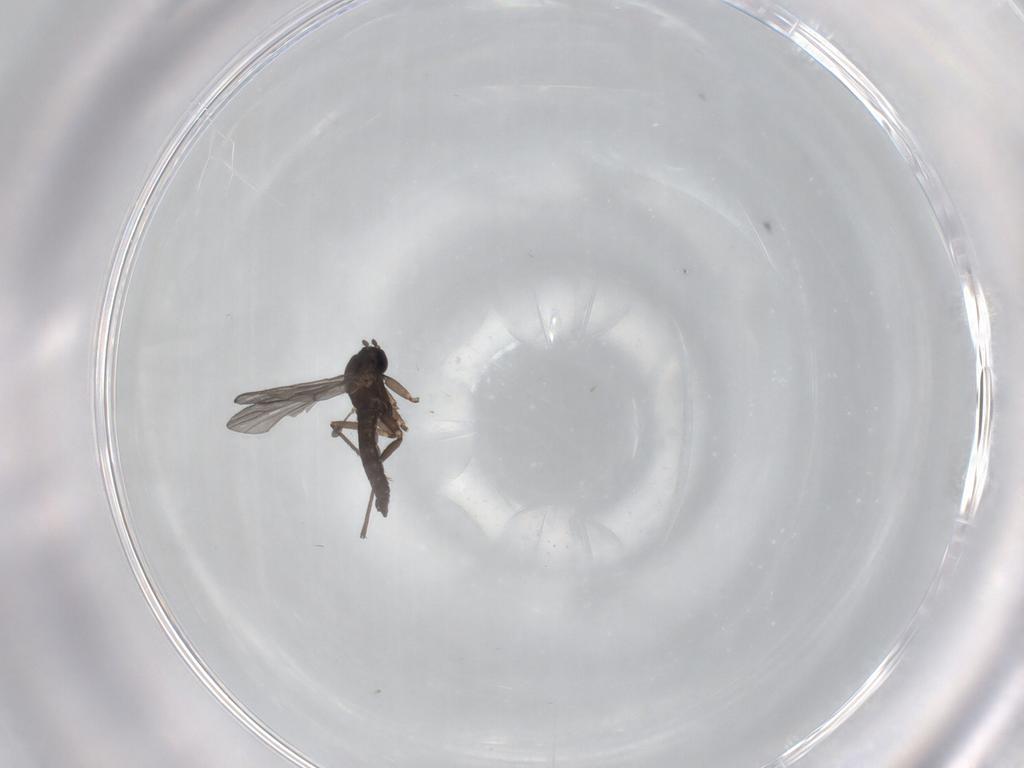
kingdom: Animalia
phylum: Arthropoda
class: Insecta
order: Diptera
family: Sciaridae
